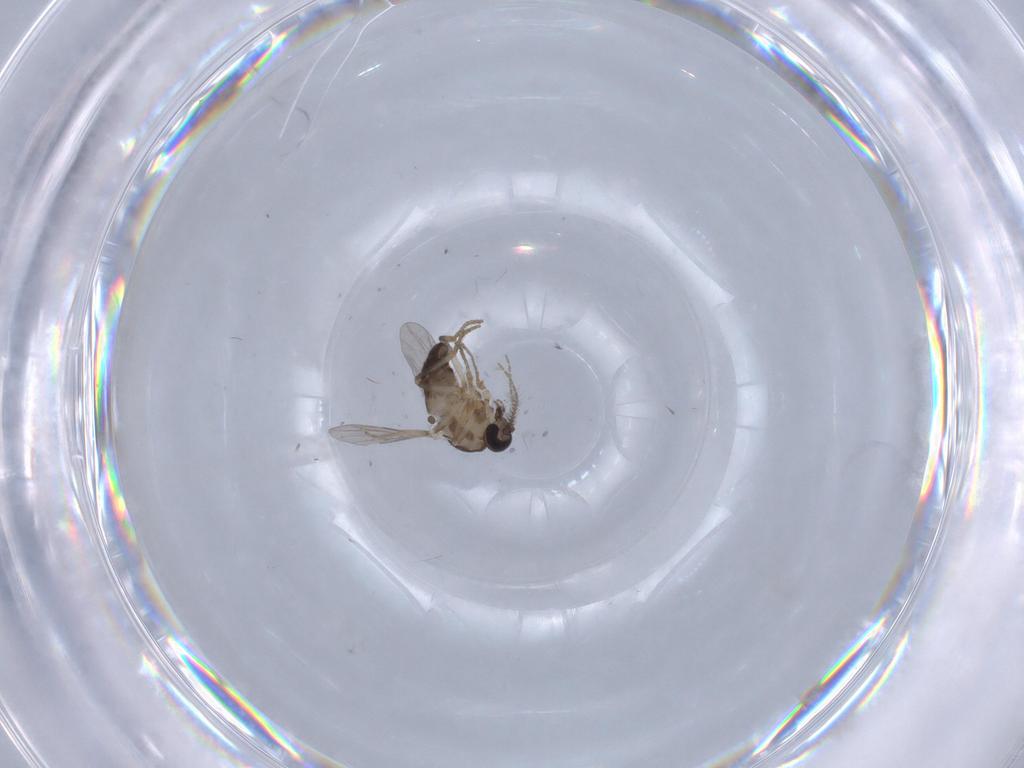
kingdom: Animalia
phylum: Arthropoda
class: Insecta
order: Diptera
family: Ceratopogonidae
